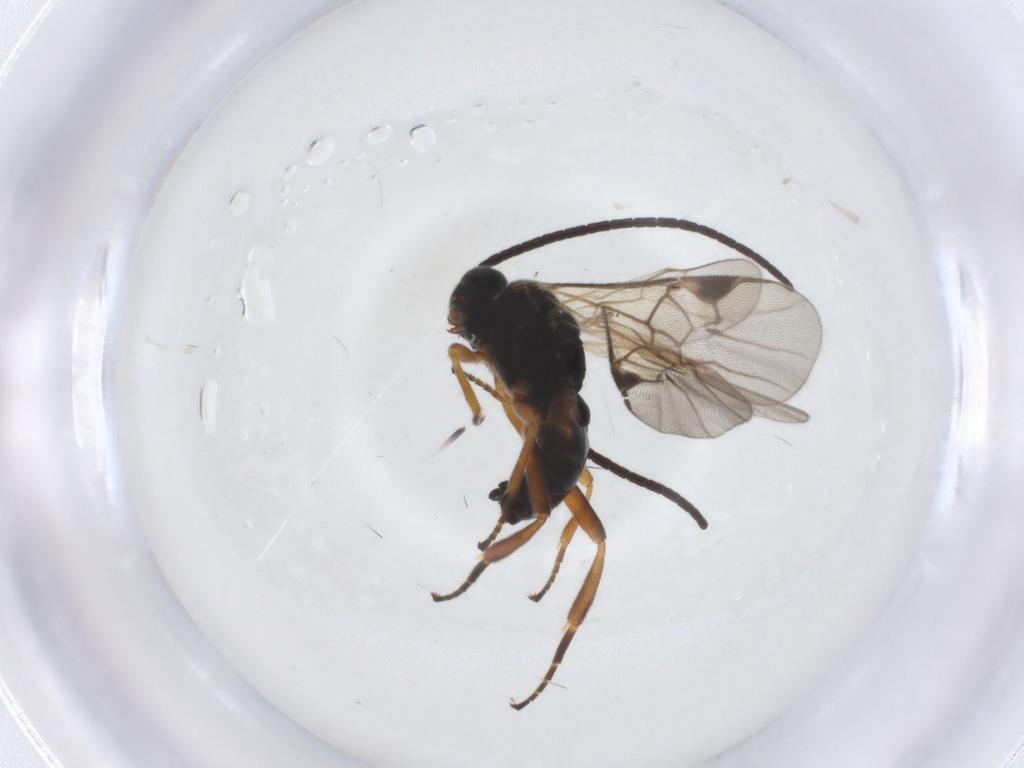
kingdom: Animalia
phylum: Arthropoda
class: Insecta
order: Hymenoptera
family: Braconidae
